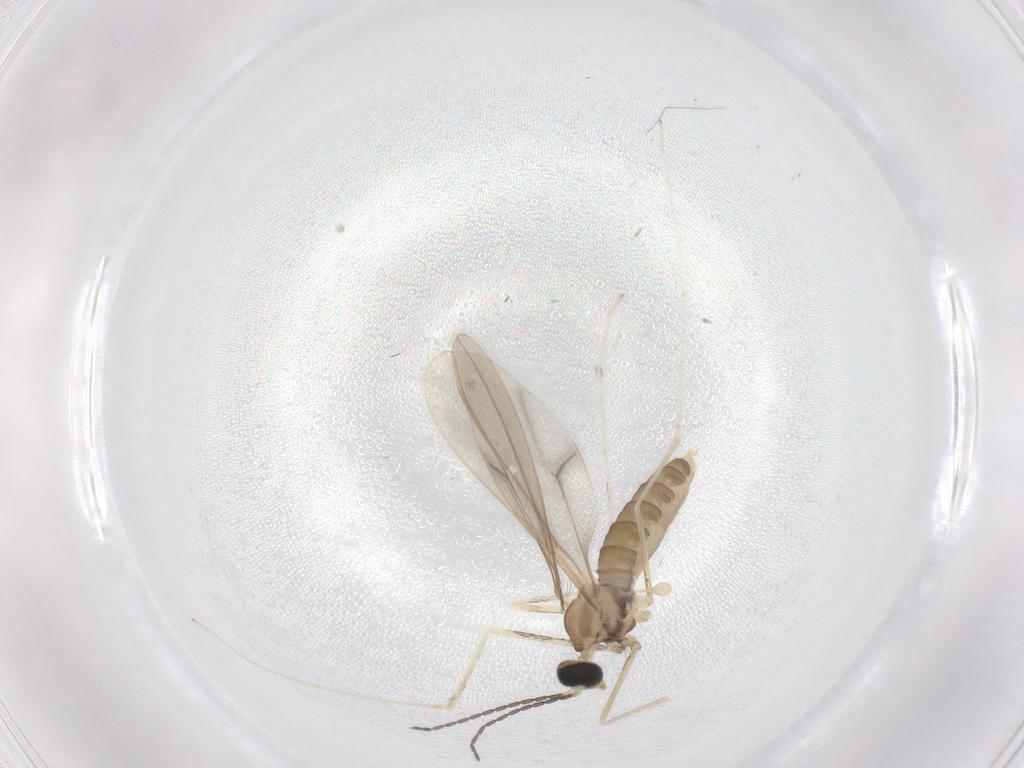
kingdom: Animalia
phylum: Arthropoda
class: Insecta
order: Diptera
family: Cecidomyiidae
